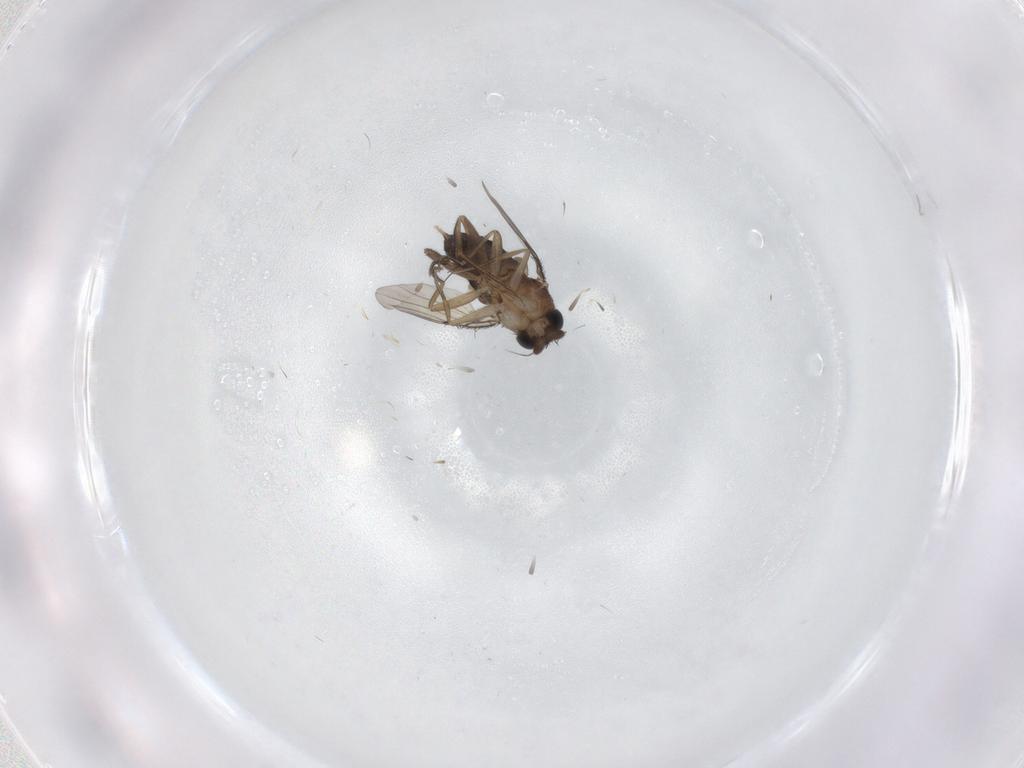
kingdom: Animalia
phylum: Arthropoda
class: Insecta
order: Diptera
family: Phoridae
